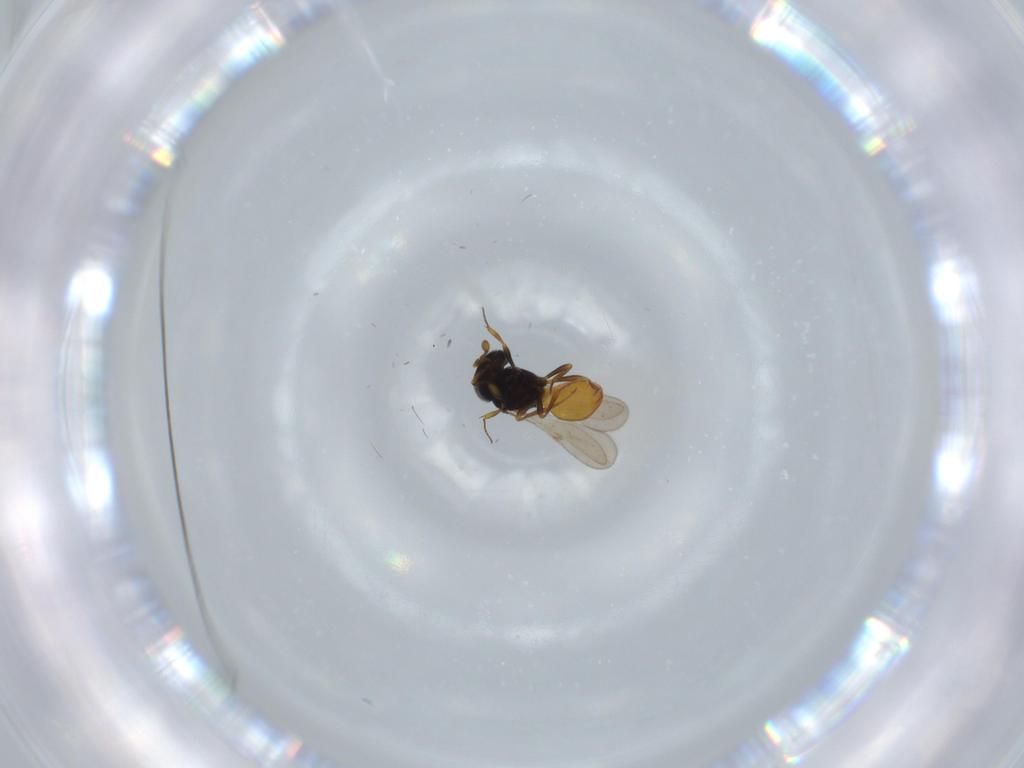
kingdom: Animalia
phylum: Arthropoda
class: Insecta
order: Hymenoptera
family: Scelionidae
